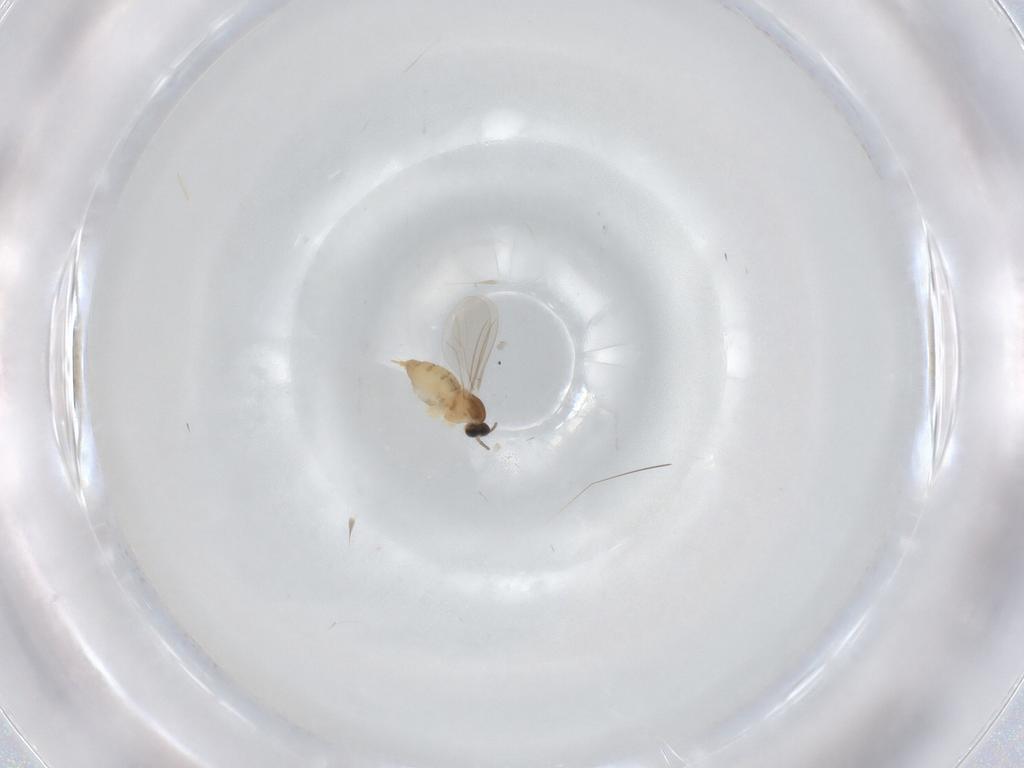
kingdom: Animalia
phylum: Arthropoda
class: Insecta
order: Diptera
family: Cecidomyiidae
